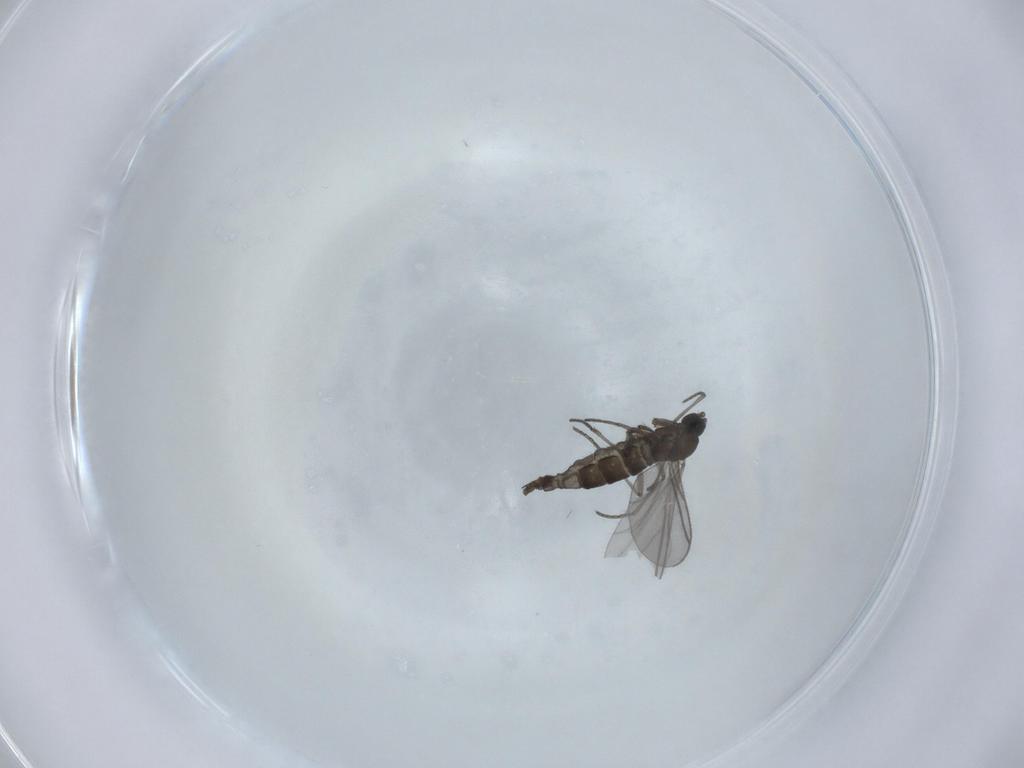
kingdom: Animalia
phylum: Arthropoda
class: Insecta
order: Diptera
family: Sciaridae
